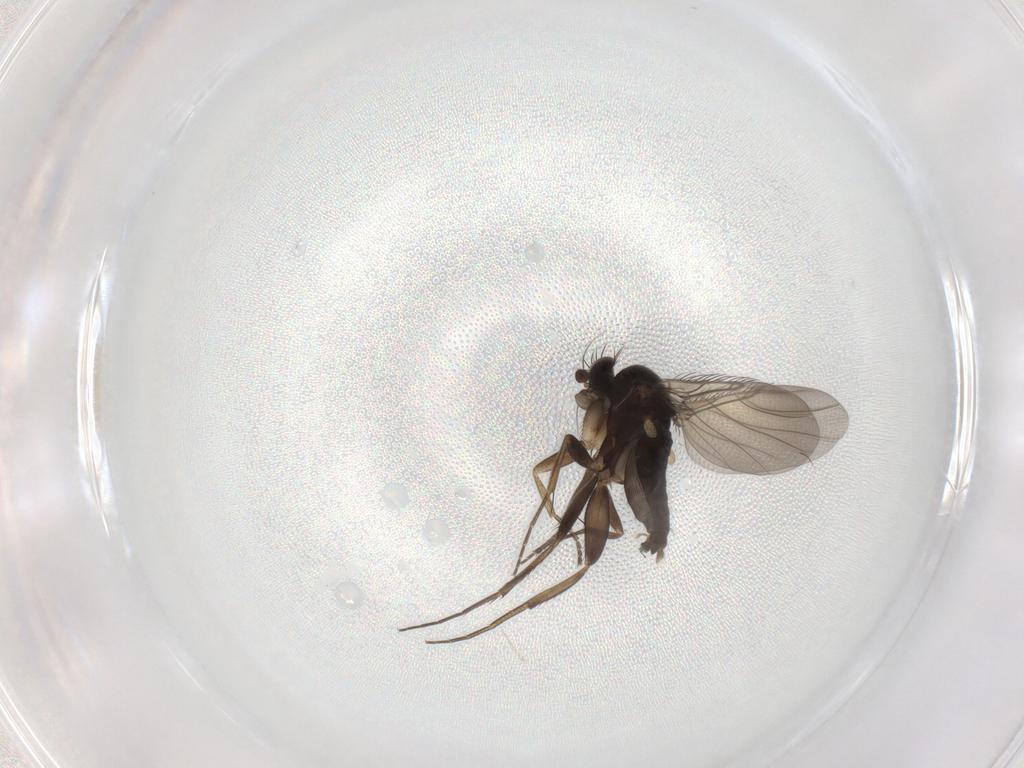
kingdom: Animalia
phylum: Arthropoda
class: Insecta
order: Diptera
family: Phoridae
